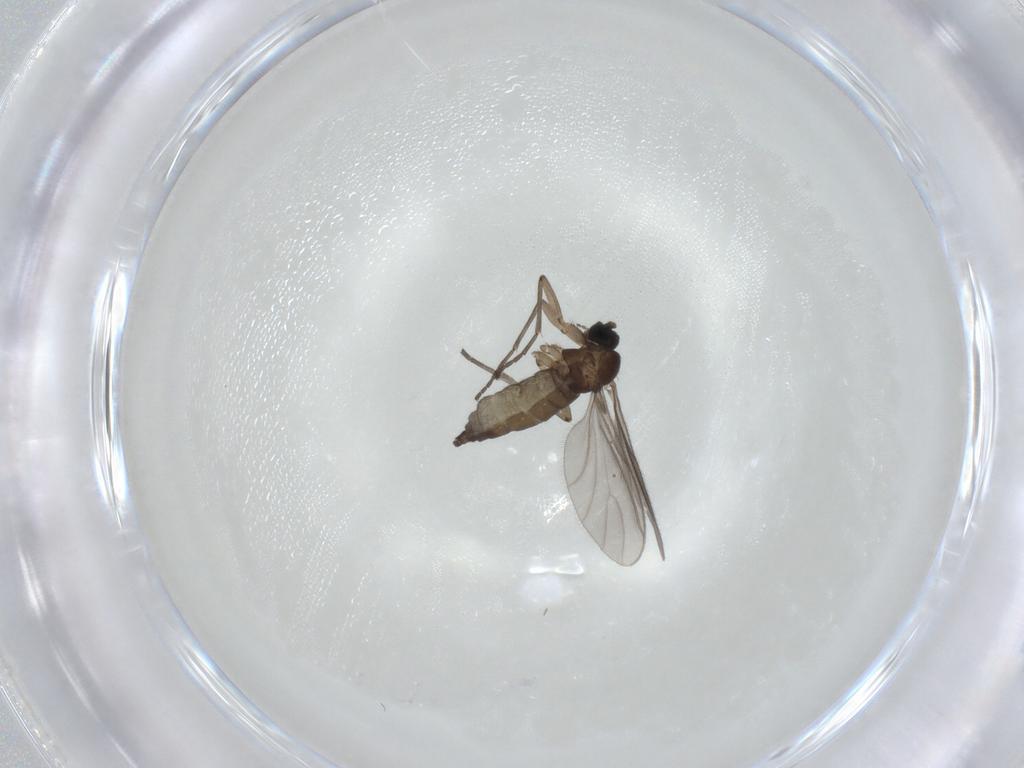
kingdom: Animalia
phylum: Arthropoda
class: Insecta
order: Diptera
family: Sciaridae
